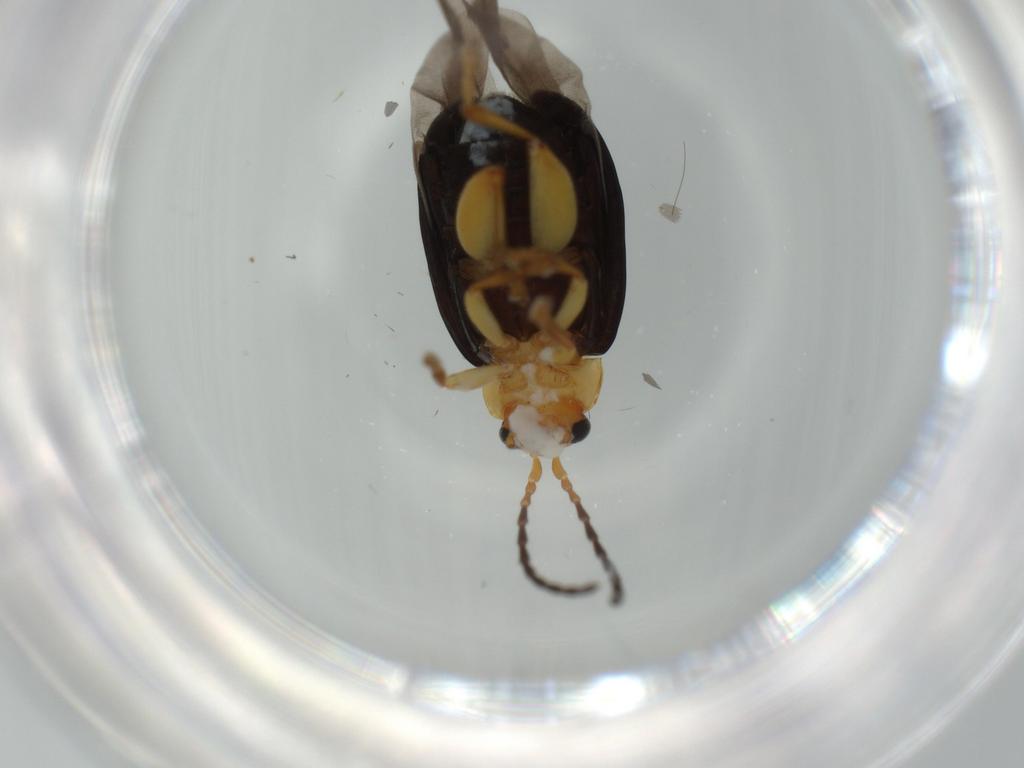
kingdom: Animalia
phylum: Arthropoda
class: Insecta
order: Coleoptera
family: Chrysomelidae
